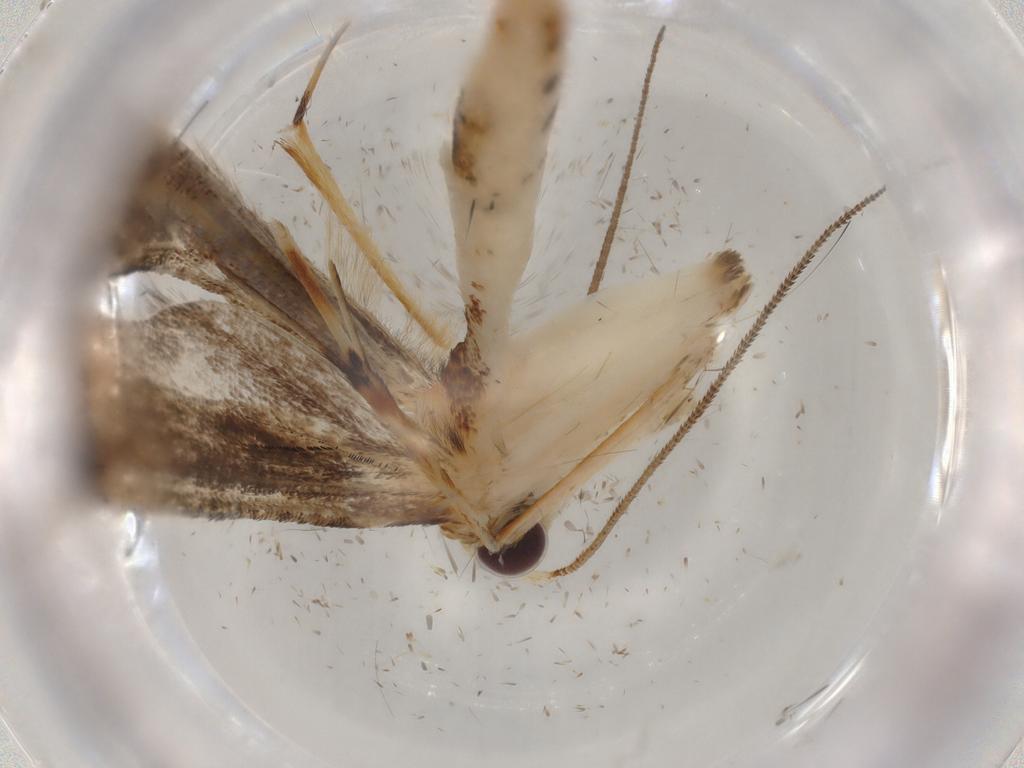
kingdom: Animalia
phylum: Arthropoda
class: Insecta
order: Lepidoptera
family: Pterophoridae
